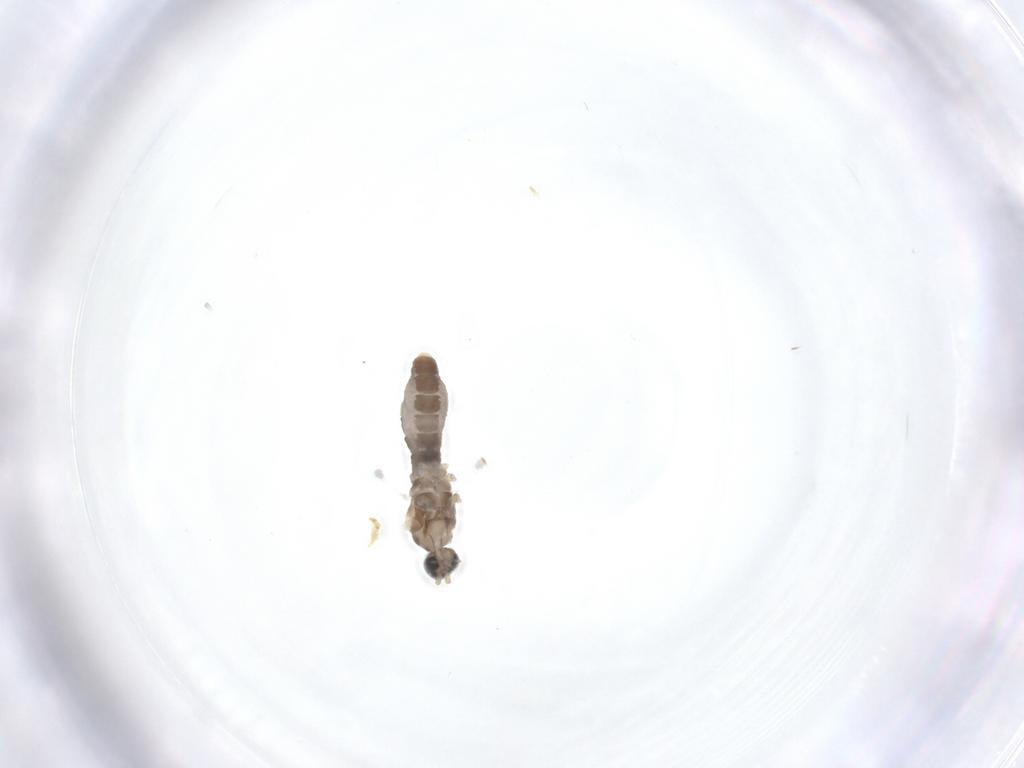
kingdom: Animalia
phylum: Arthropoda
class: Insecta
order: Diptera
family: Cecidomyiidae
